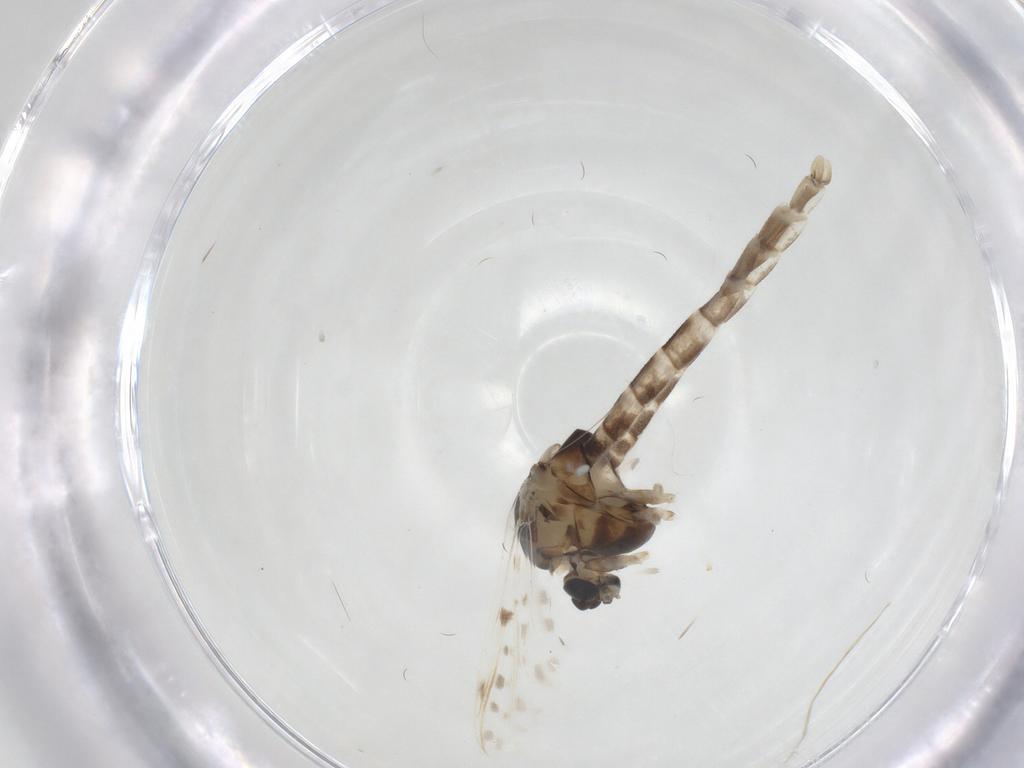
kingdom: Animalia
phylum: Arthropoda
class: Insecta
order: Diptera
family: Chironomidae
